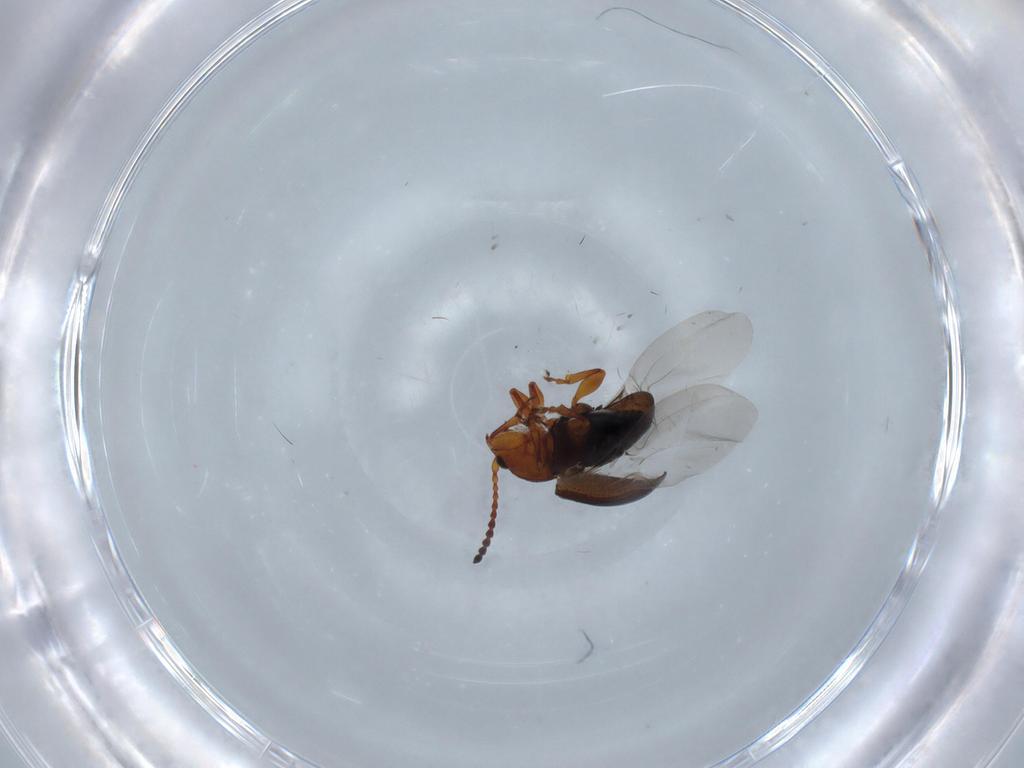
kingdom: Animalia
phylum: Arthropoda
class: Insecta
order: Coleoptera
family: Chrysomelidae
